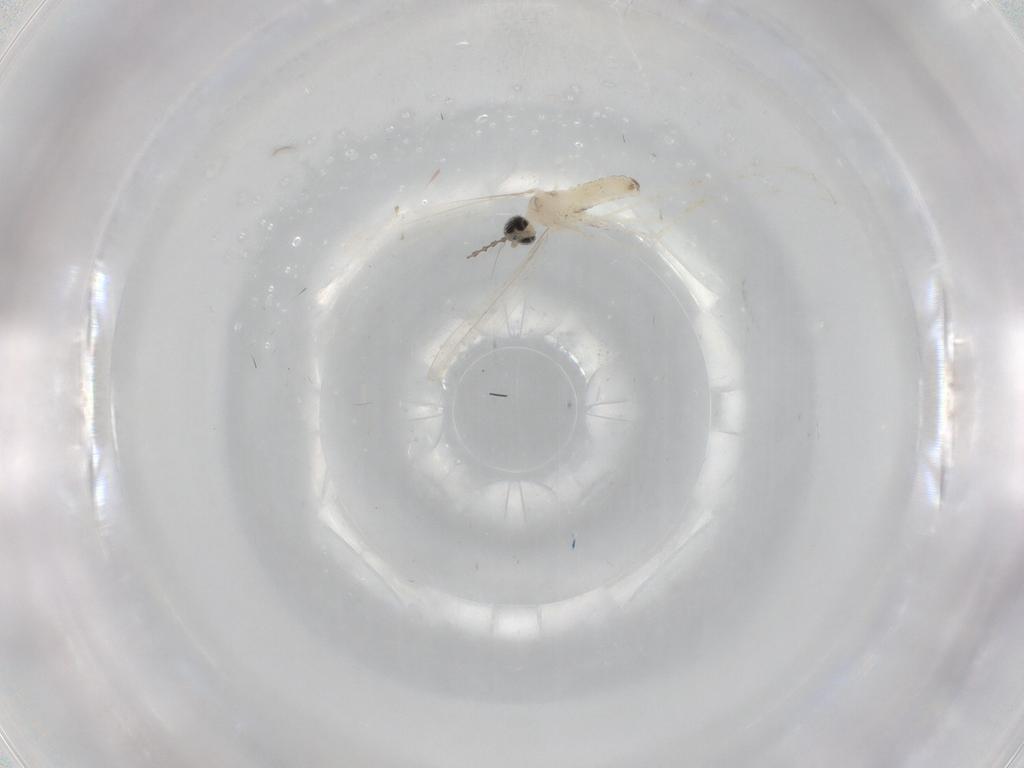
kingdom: Animalia
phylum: Arthropoda
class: Insecta
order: Diptera
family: Cecidomyiidae
